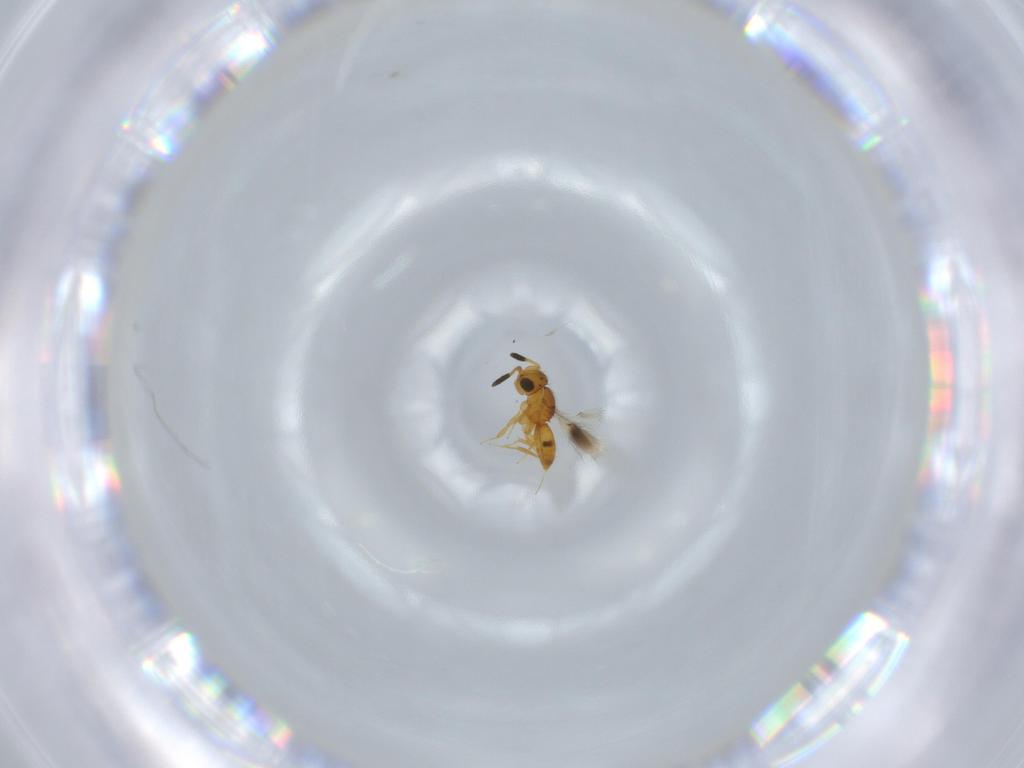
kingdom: Animalia
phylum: Arthropoda
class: Insecta
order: Hymenoptera
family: Scelionidae
